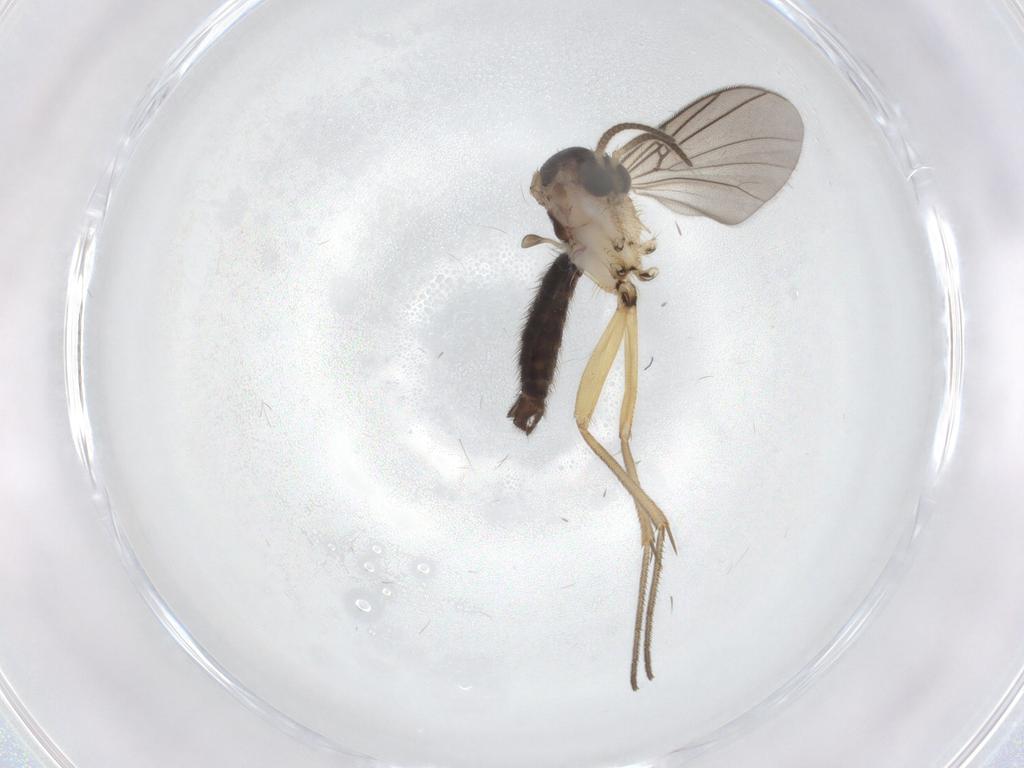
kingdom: Animalia
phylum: Arthropoda
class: Insecta
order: Diptera
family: Mycetophilidae
